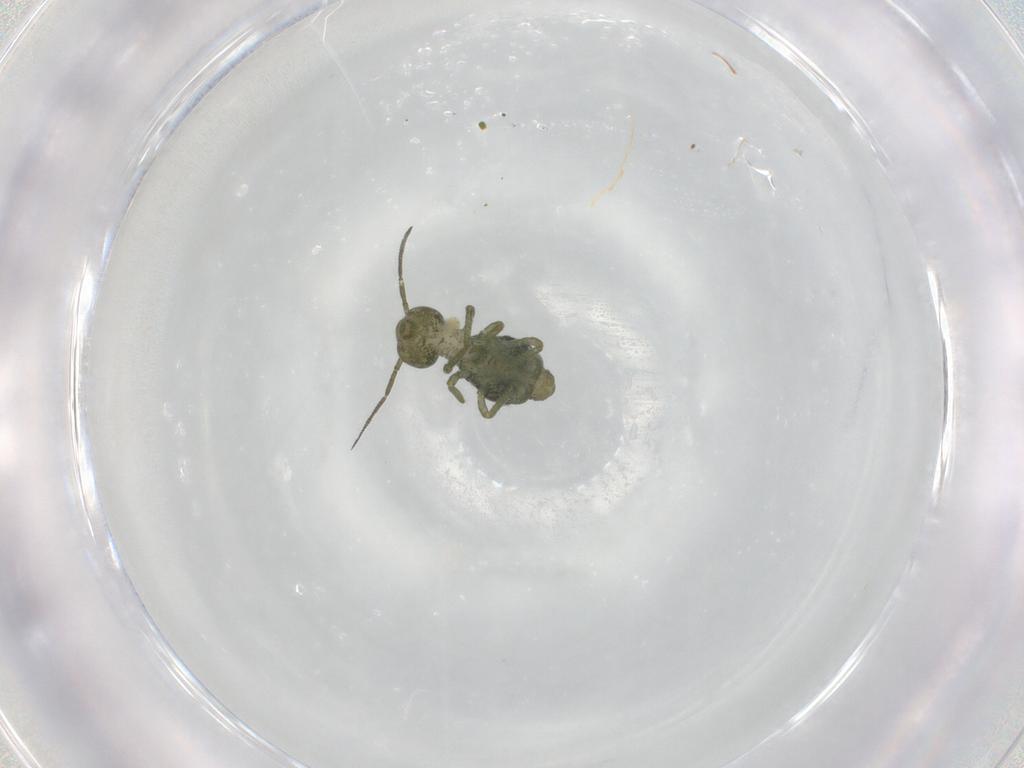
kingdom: Animalia
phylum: Arthropoda
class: Collembola
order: Symphypleona
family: Sminthuridae
